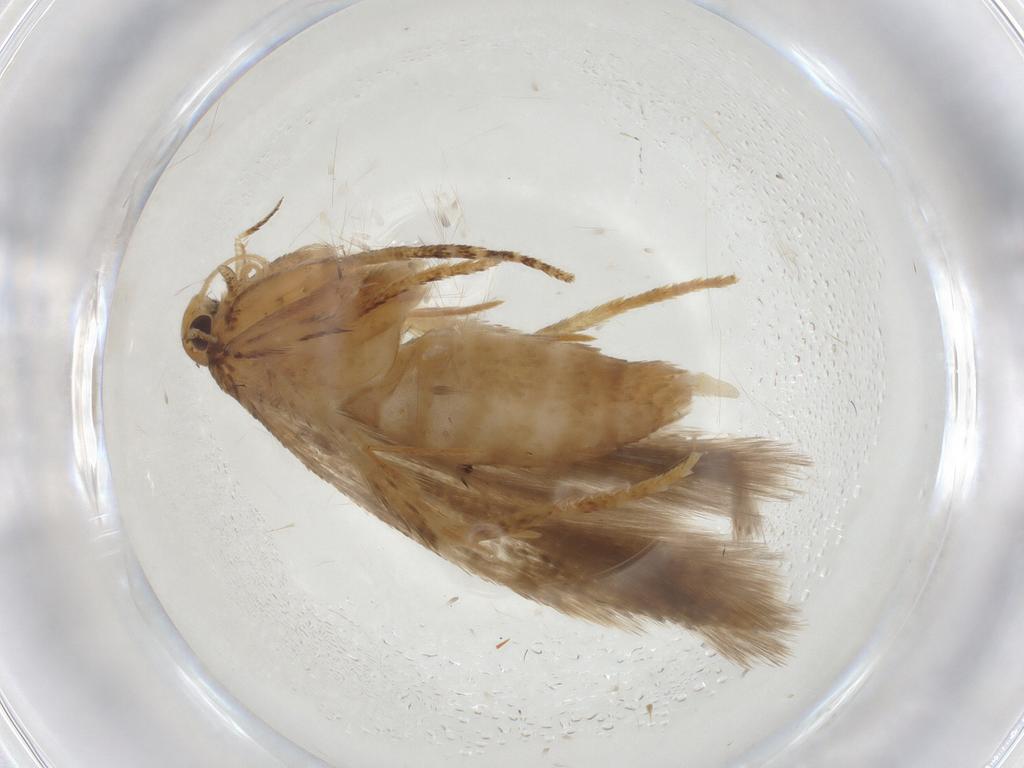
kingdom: Animalia
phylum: Arthropoda
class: Insecta
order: Lepidoptera
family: Gelechiidae
